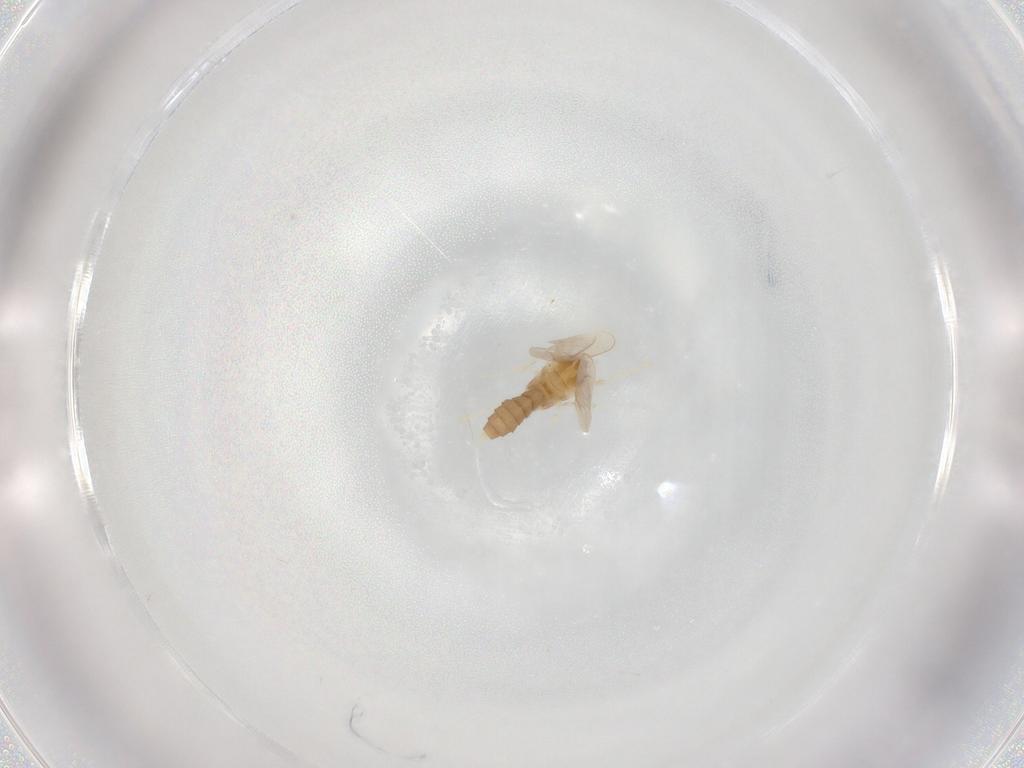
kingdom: Animalia
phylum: Arthropoda
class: Insecta
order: Diptera
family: Cecidomyiidae
